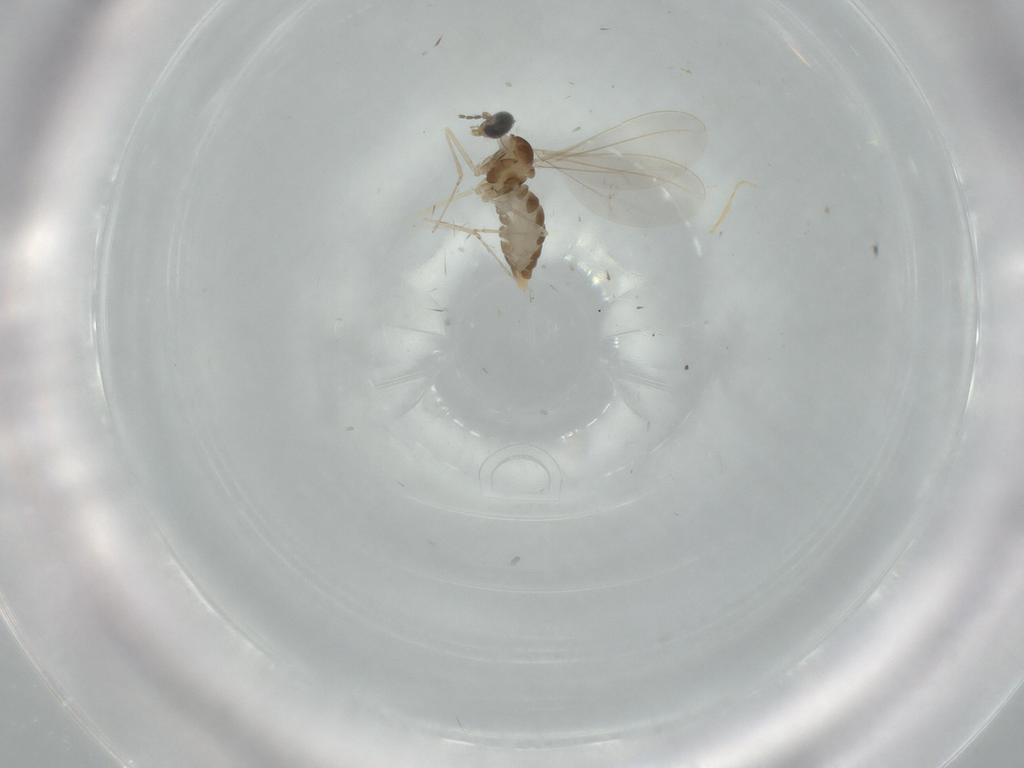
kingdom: Animalia
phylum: Arthropoda
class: Insecta
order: Diptera
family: Cecidomyiidae
